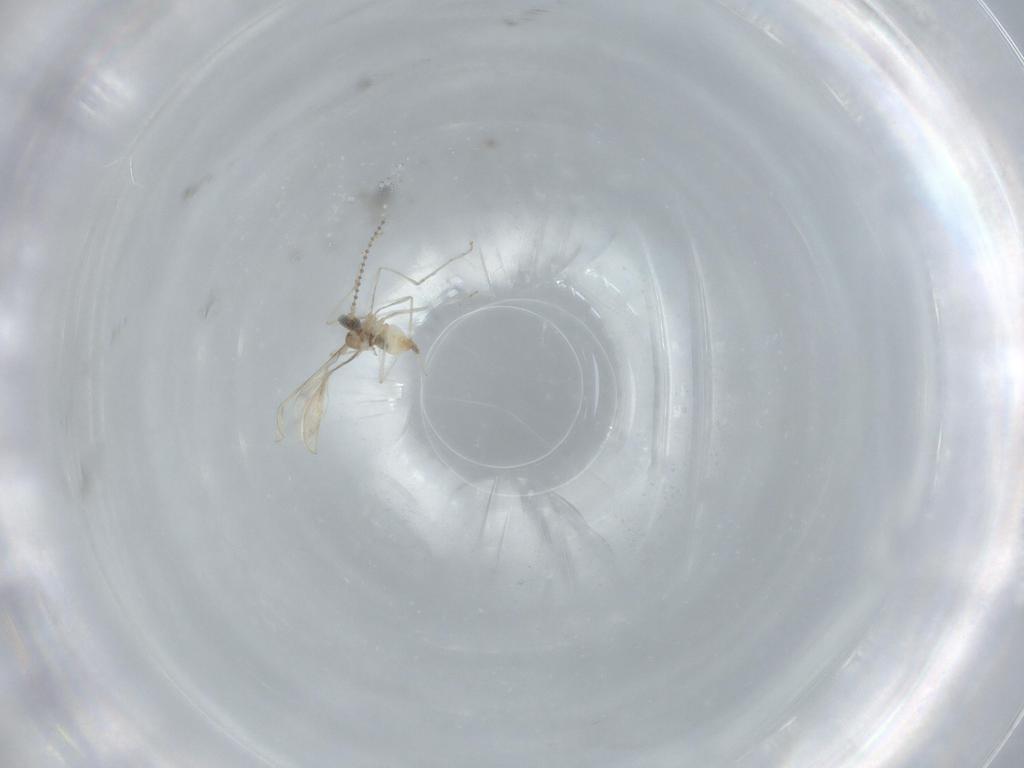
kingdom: Animalia
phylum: Arthropoda
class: Insecta
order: Diptera
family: Cecidomyiidae
